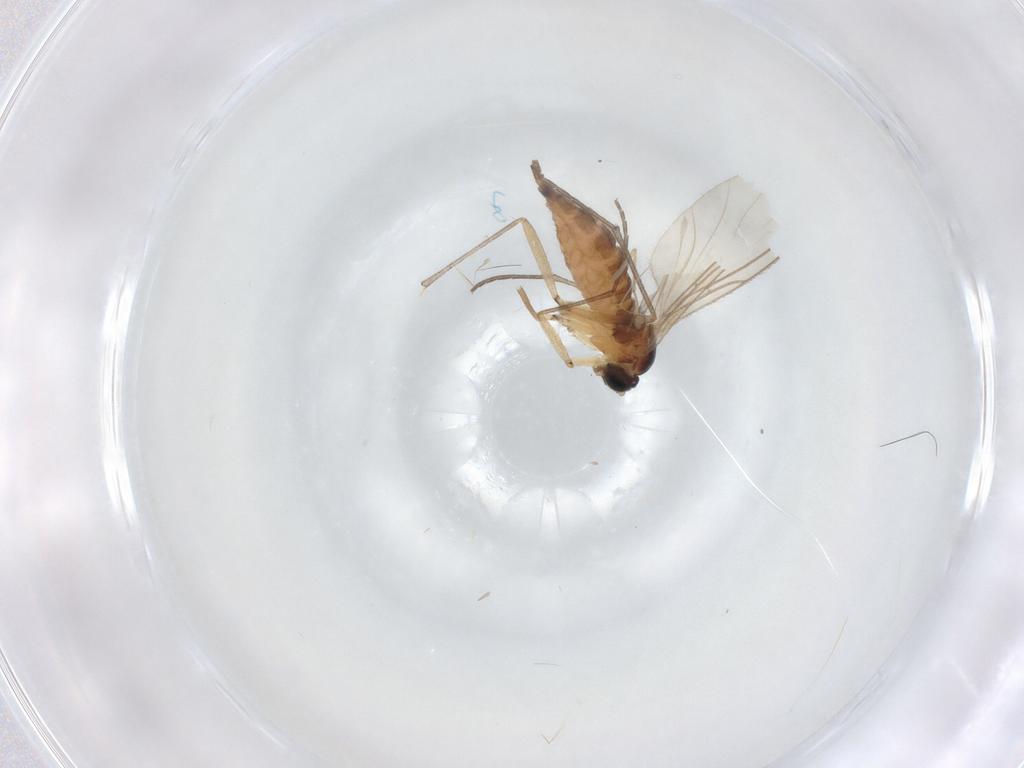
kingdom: Animalia
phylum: Arthropoda
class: Insecta
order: Diptera
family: Sciaridae
